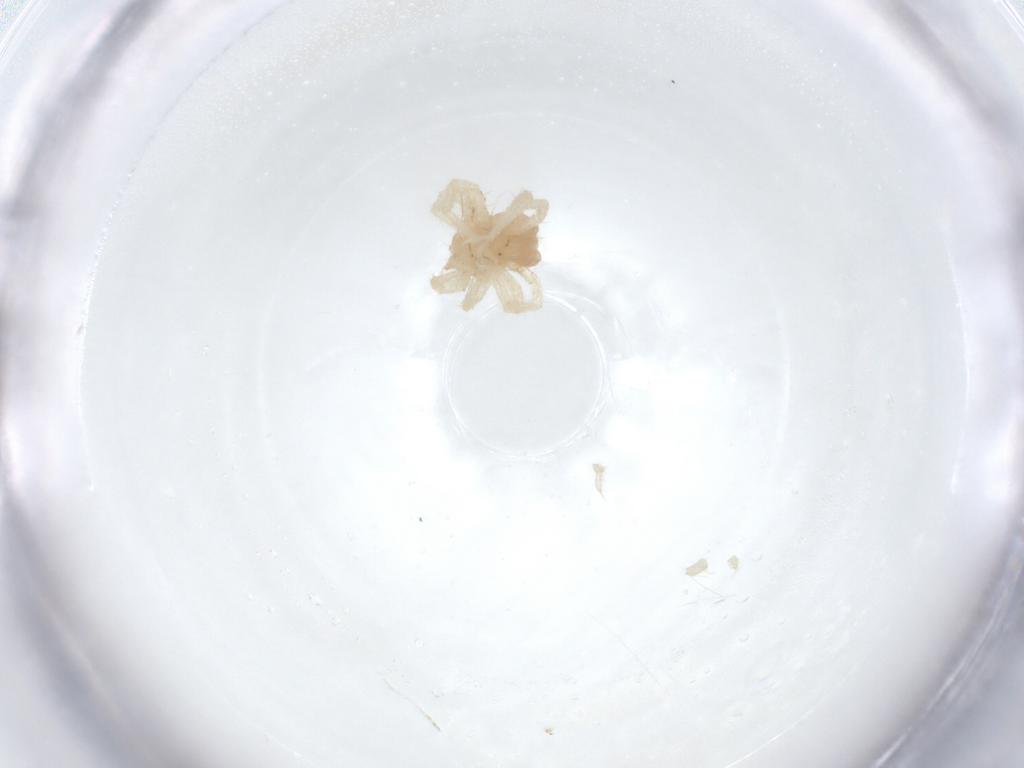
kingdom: Animalia
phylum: Arthropoda
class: Arachnida
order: Trombidiformes
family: Anystidae
